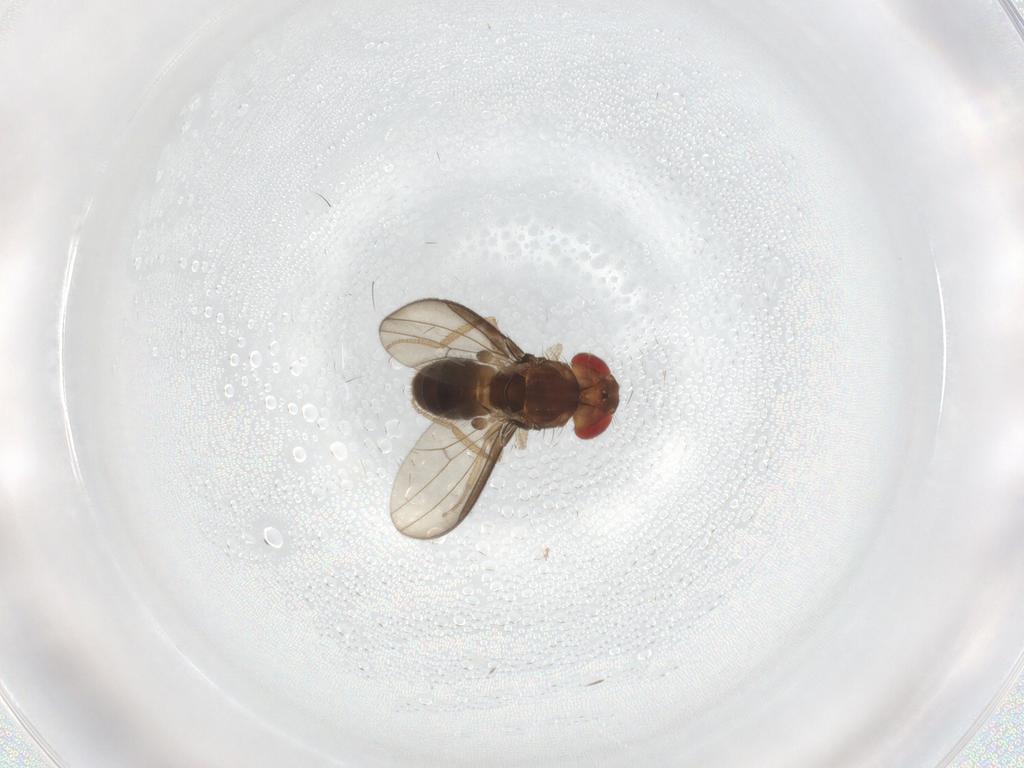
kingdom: Animalia
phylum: Arthropoda
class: Insecta
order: Diptera
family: Drosophilidae
